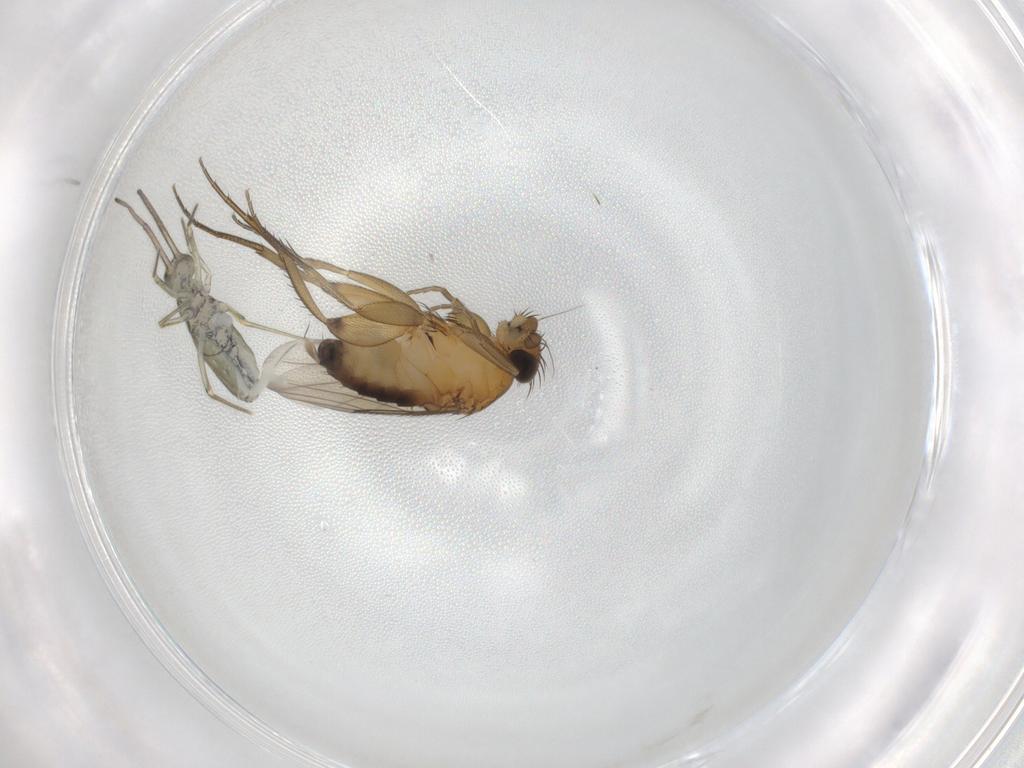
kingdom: Animalia
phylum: Arthropoda
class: Insecta
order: Diptera
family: Phoridae
